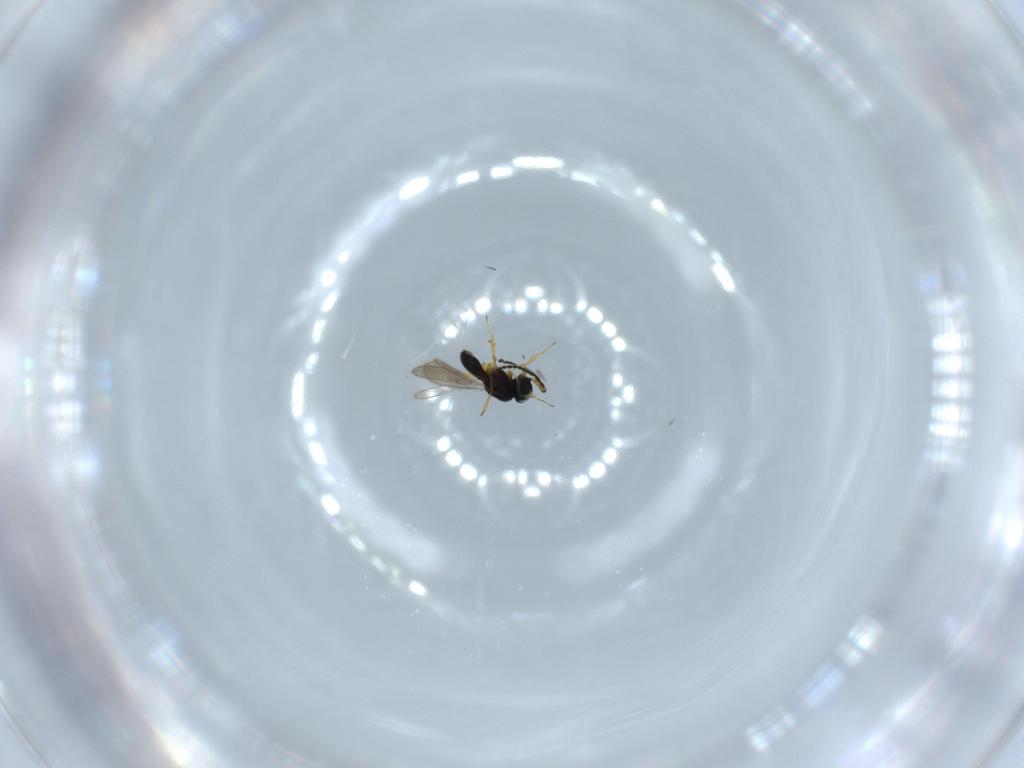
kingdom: Animalia
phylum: Arthropoda
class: Insecta
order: Hymenoptera
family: Scelionidae
